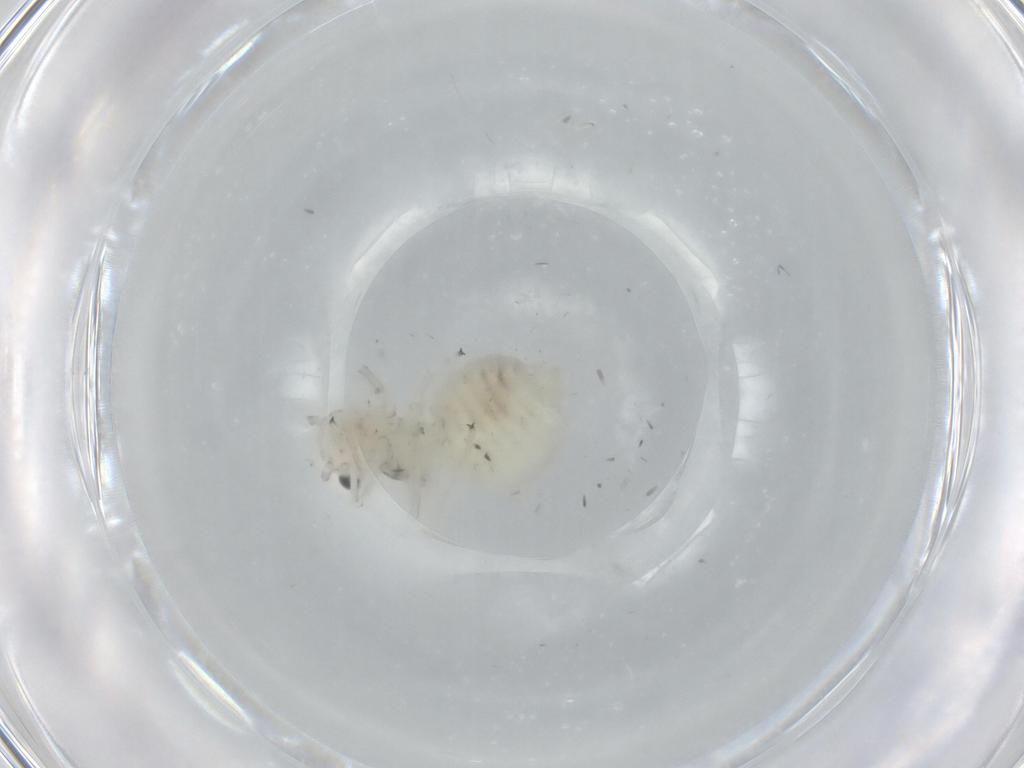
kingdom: Animalia
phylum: Arthropoda
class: Insecta
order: Psocodea
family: Amphipsocidae
